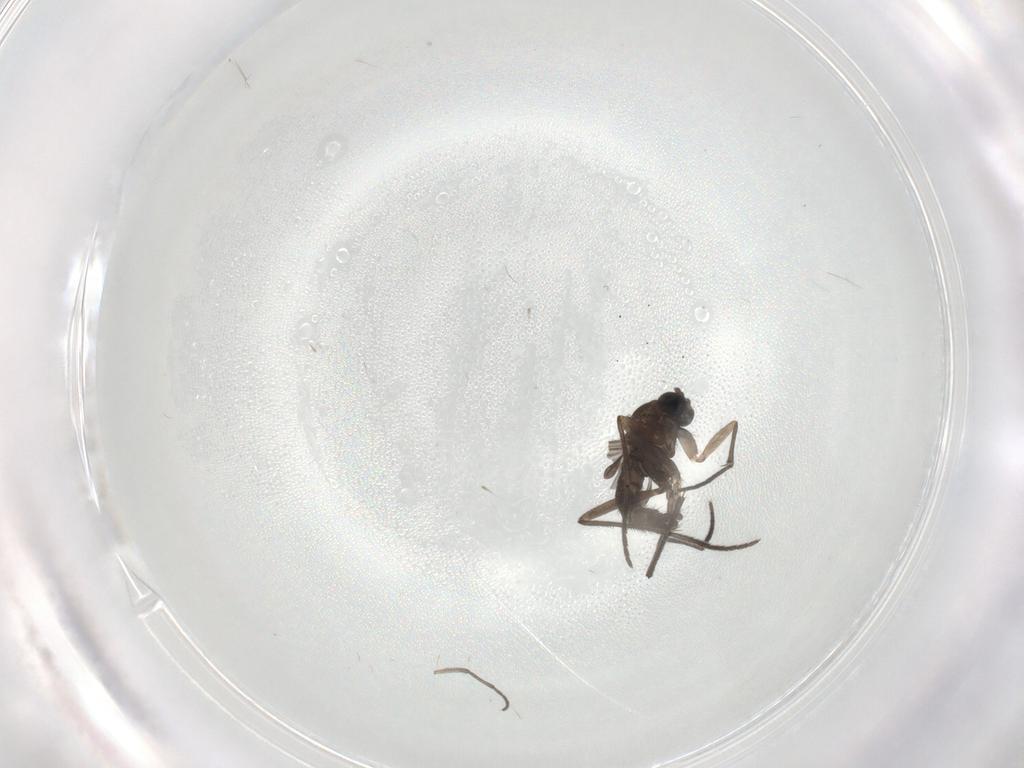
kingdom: Animalia
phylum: Arthropoda
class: Insecta
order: Diptera
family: Sciaridae
